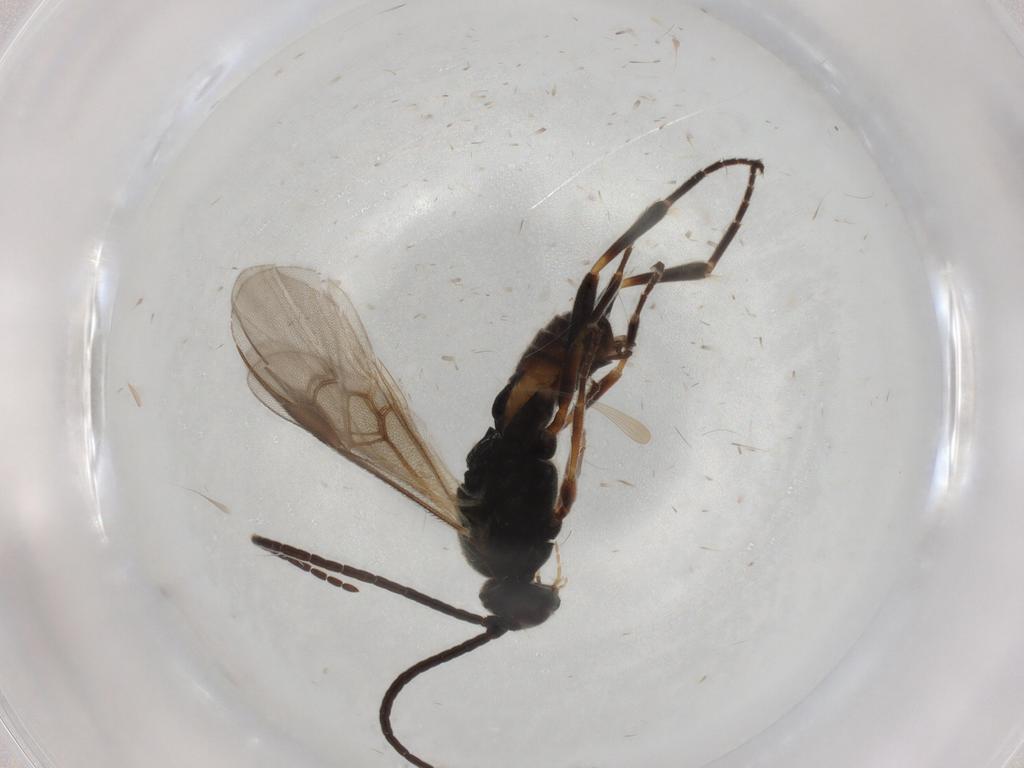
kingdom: Animalia
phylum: Arthropoda
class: Insecta
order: Hymenoptera
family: Braconidae
